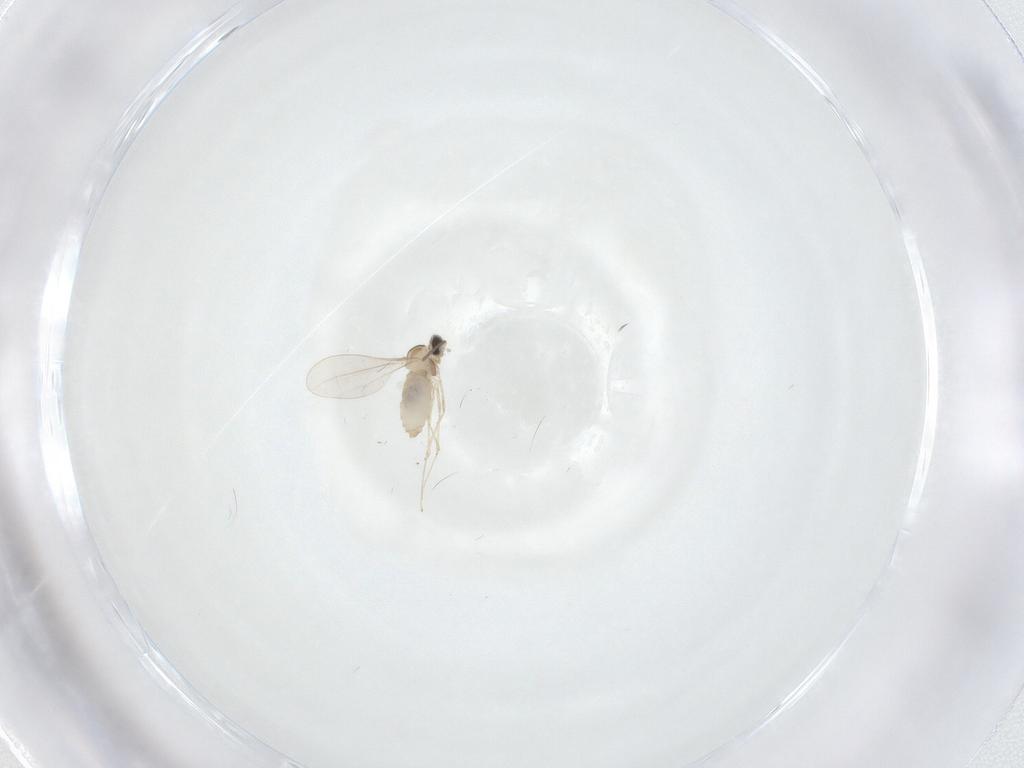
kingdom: Animalia
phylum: Arthropoda
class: Insecta
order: Diptera
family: Cecidomyiidae
